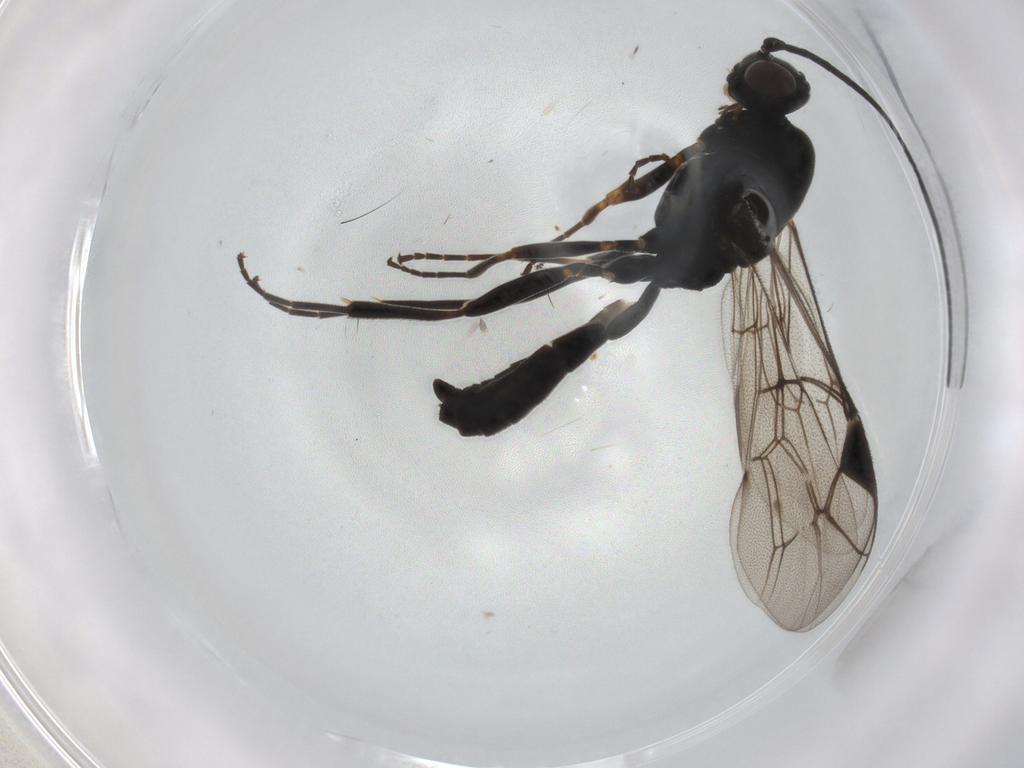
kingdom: Animalia
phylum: Arthropoda
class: Insecta
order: Hymenoptera
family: Ichneumonidae
